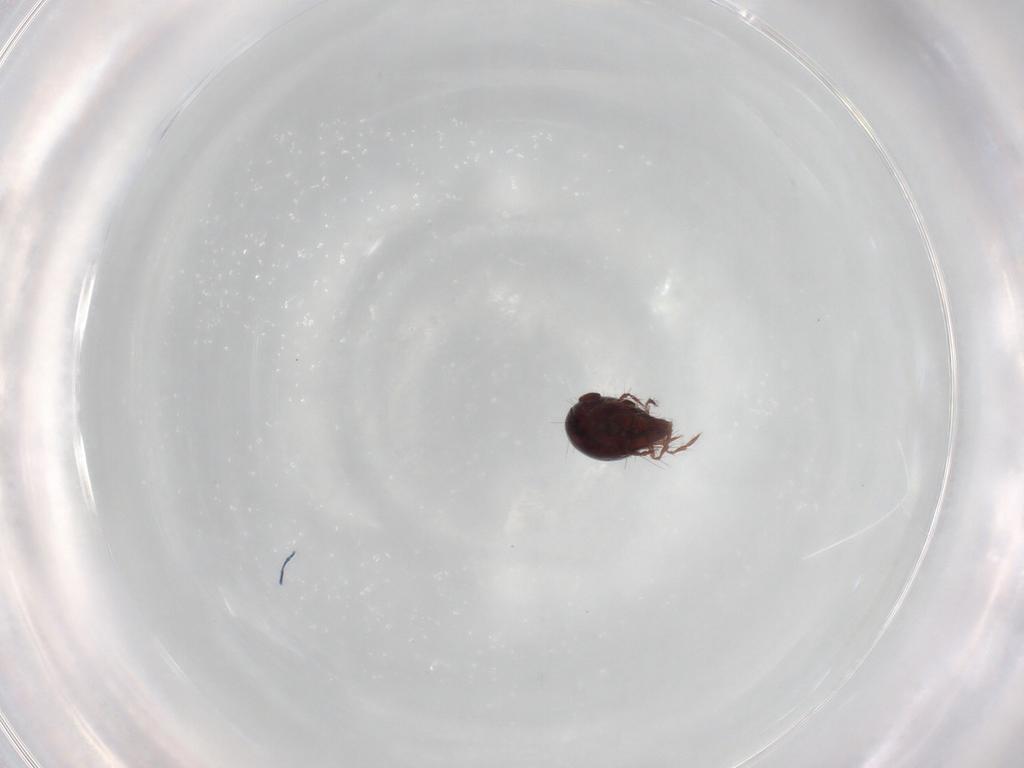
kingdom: Animalia
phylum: Arthropoda
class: Arachnida
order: Sarcoptiformes
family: Ceratoppiidae
